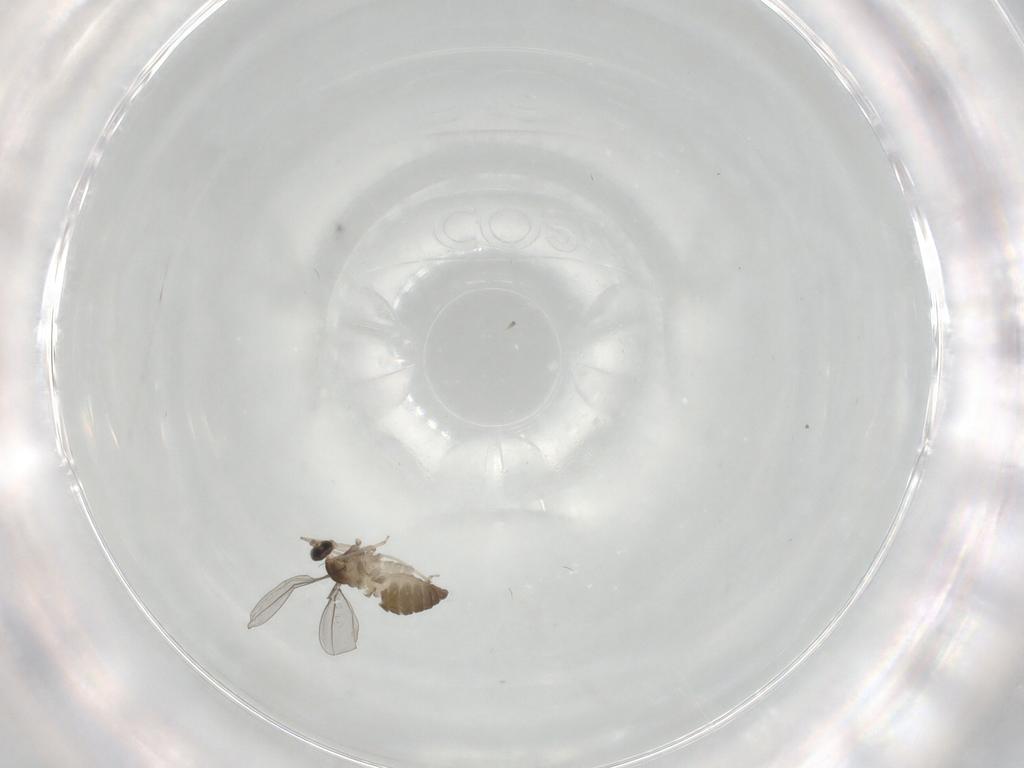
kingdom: Animalia
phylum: Arthropoda
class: Insecta
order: Diptera
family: Cecidomyiidae
